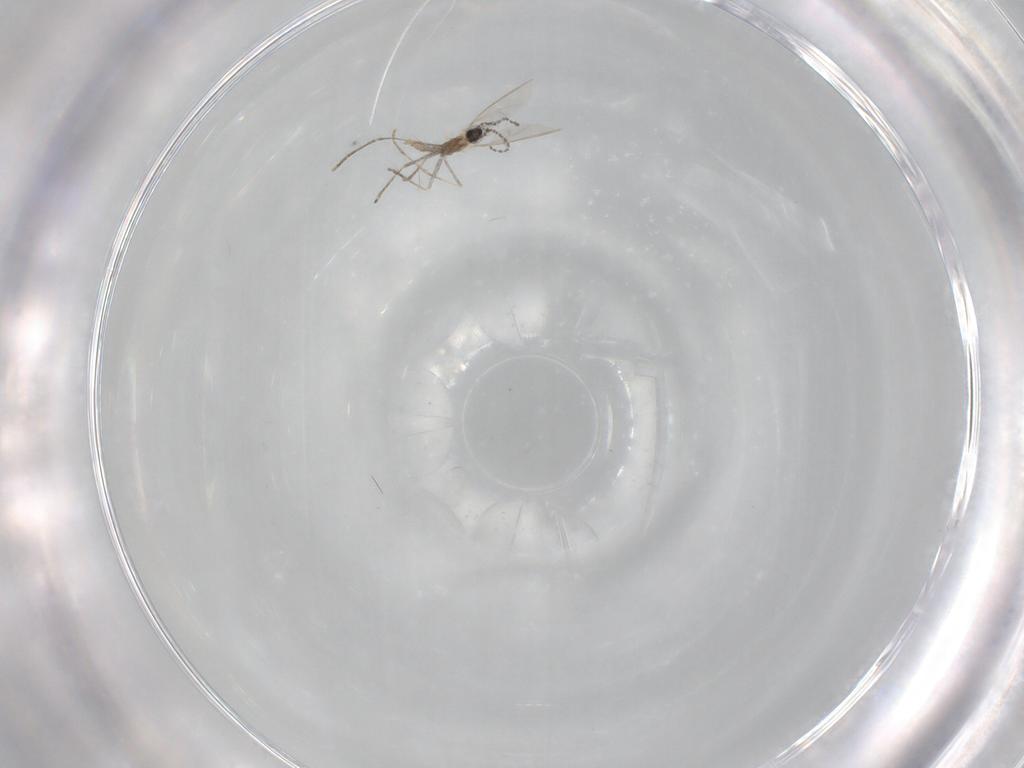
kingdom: Animalia
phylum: Arthropoda
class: Insecta
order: Diptera
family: Cecidomyiidae
